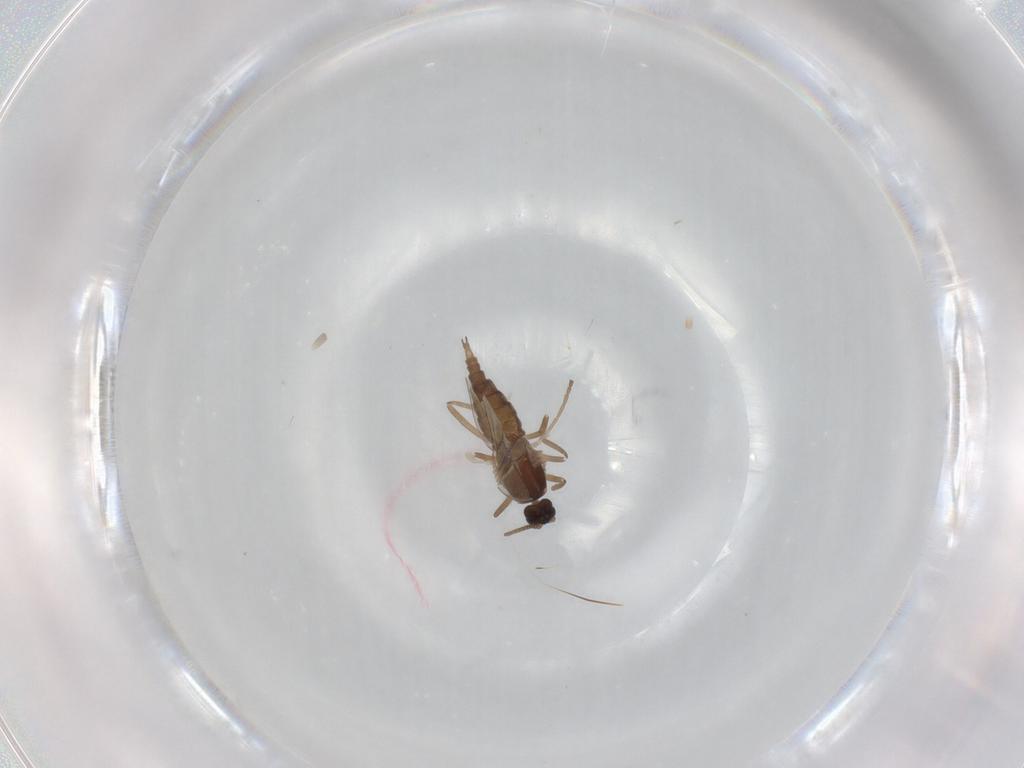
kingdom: Animalia
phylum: Arthropoda
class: Insecta
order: Diptera
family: Cecidomyiidae
